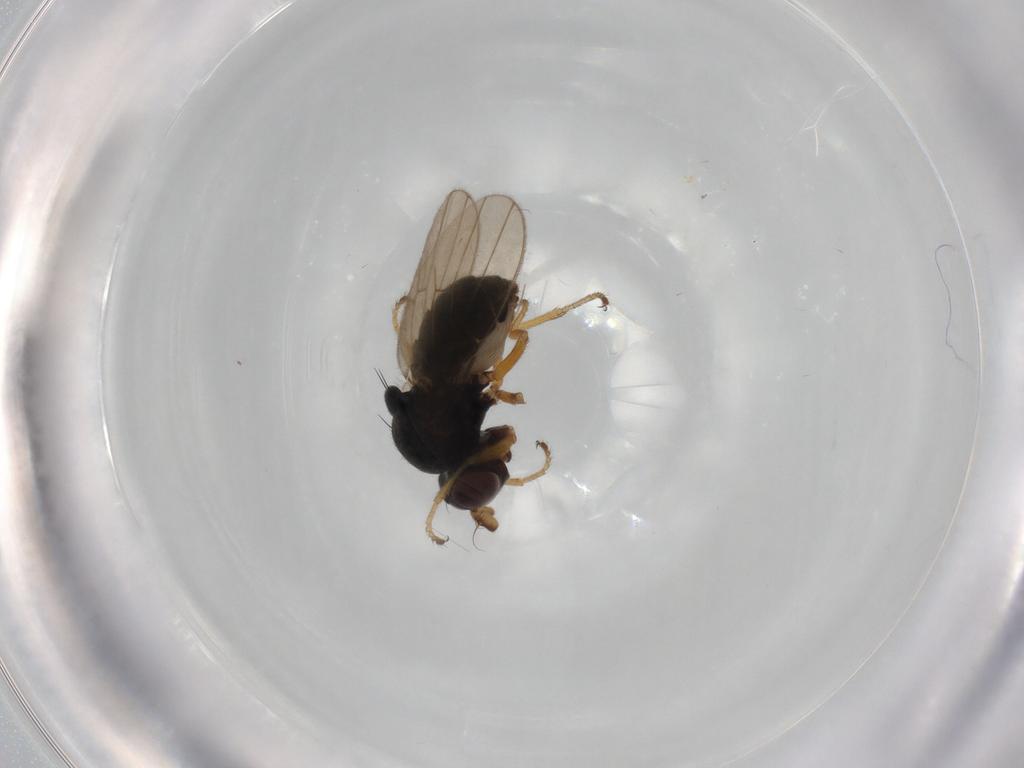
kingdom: Animalia
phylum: Arthropoda
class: Insecta
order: Diptera
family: Ephydridae
